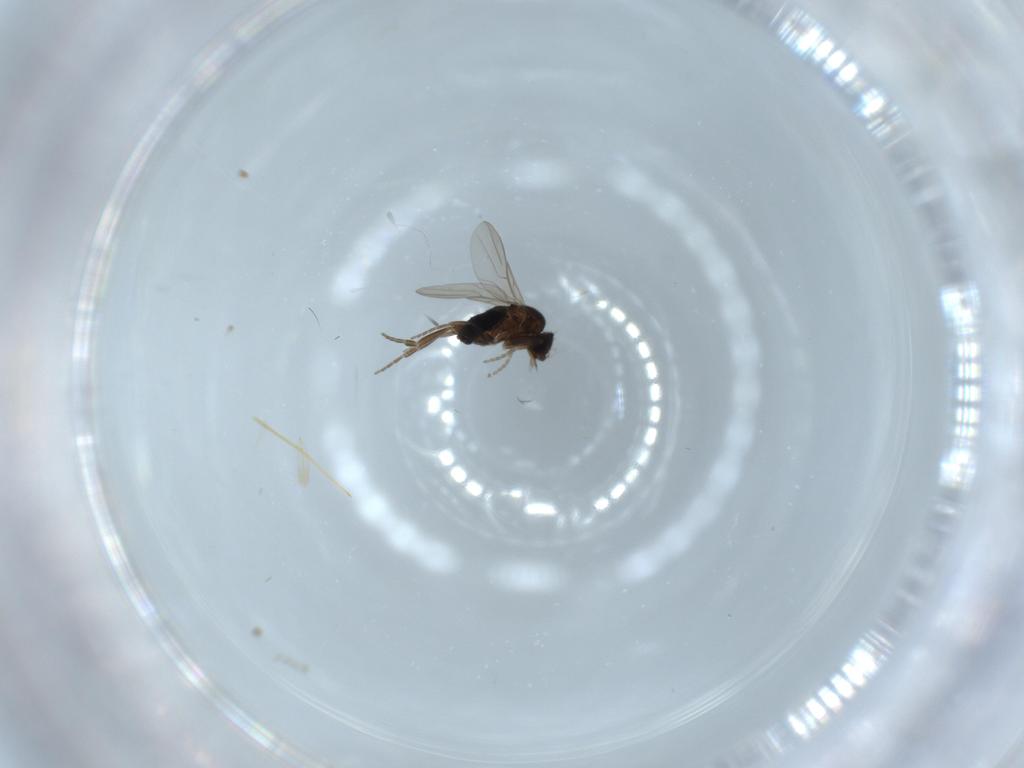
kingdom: Animalia
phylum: Arthropoda
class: Insecta
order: Diptera
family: Phoridae
